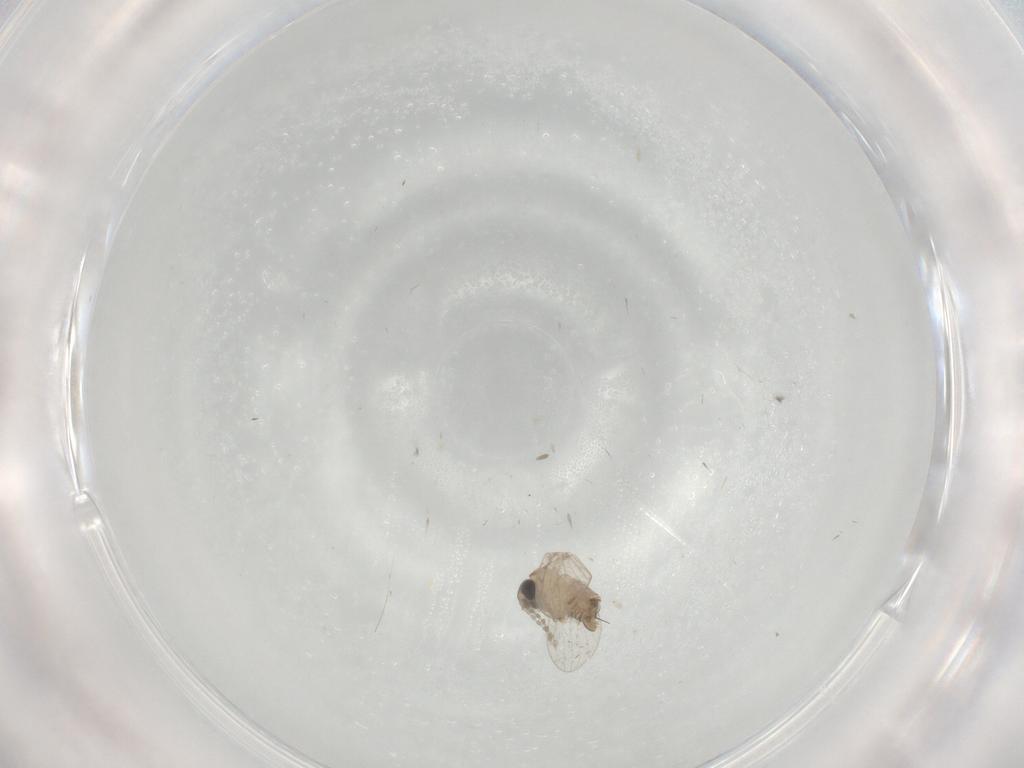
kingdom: Animalia
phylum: Arthropoda
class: Insecta
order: Diptera
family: Psychodidae
